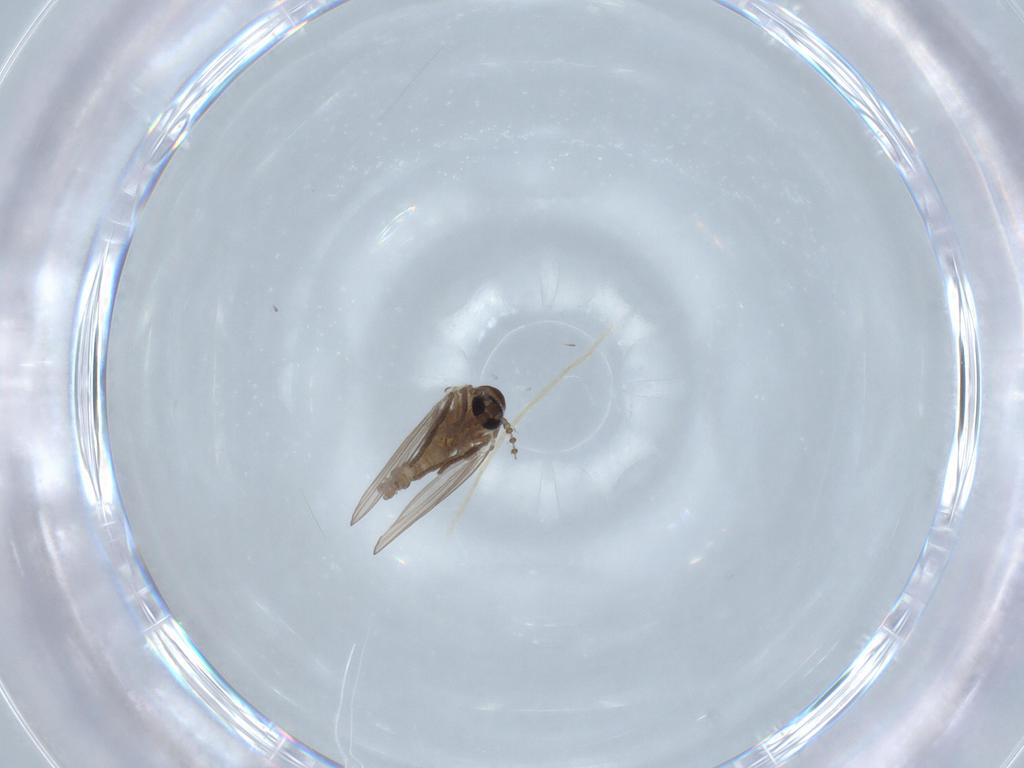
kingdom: Animalia
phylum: Arthropoda
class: Insecta
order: Diptera
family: Psychodidae
